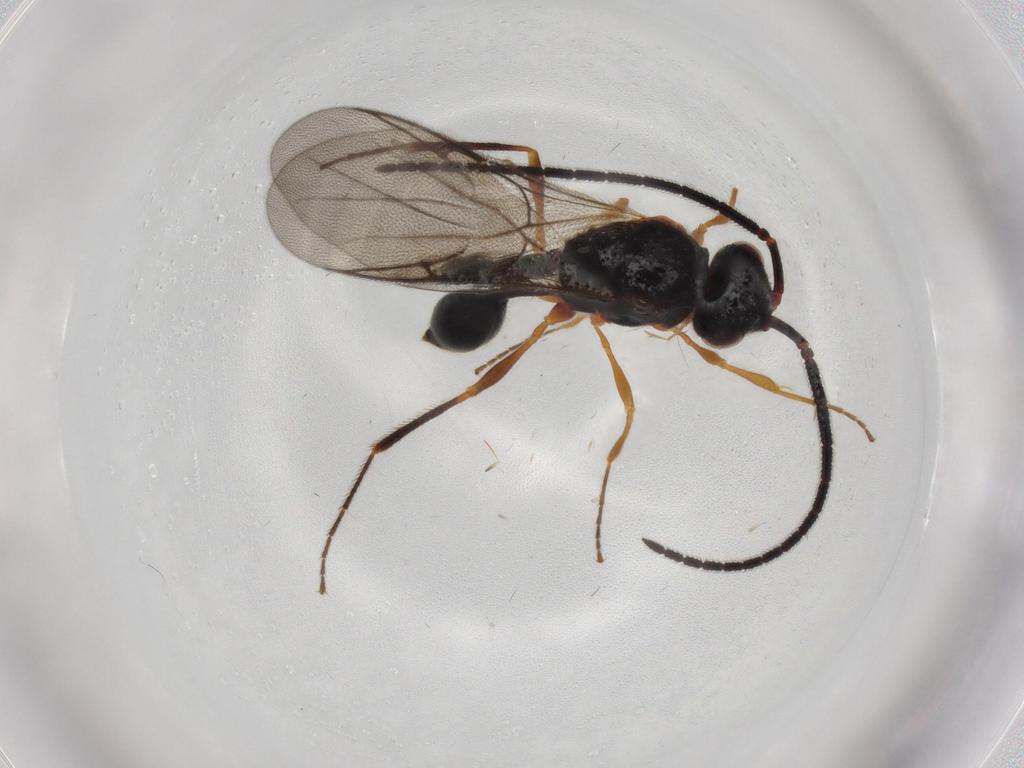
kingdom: Animalia
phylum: Arthropoda
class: Insecta
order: Hymenoptera
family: Diapriidae
